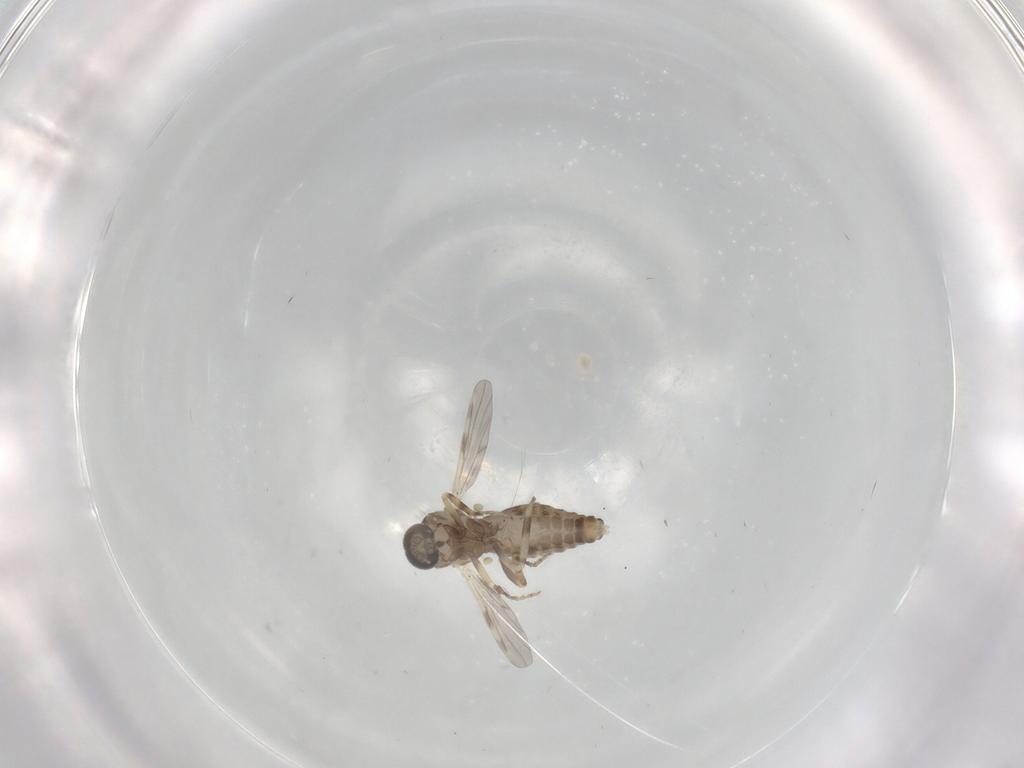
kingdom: Animalia
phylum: Arthropoda
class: Insecta
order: Diptera
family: Ceratopogonidae
